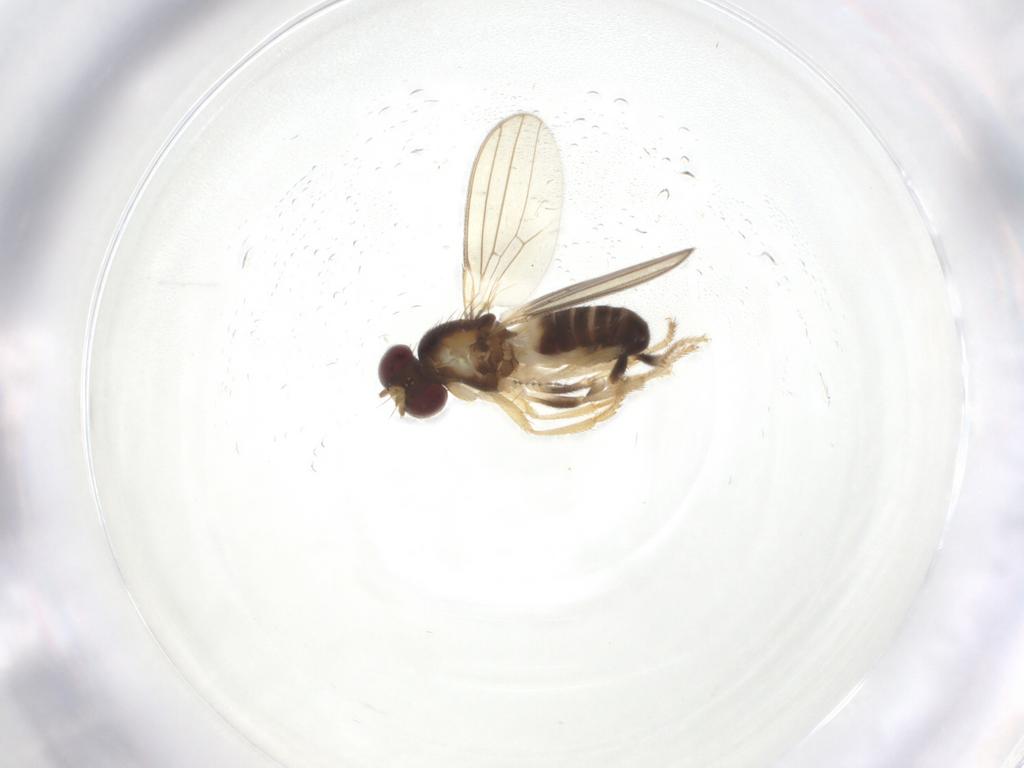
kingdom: Animalia
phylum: Arthropoda
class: Insecta
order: Diptera
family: Periscelididae
